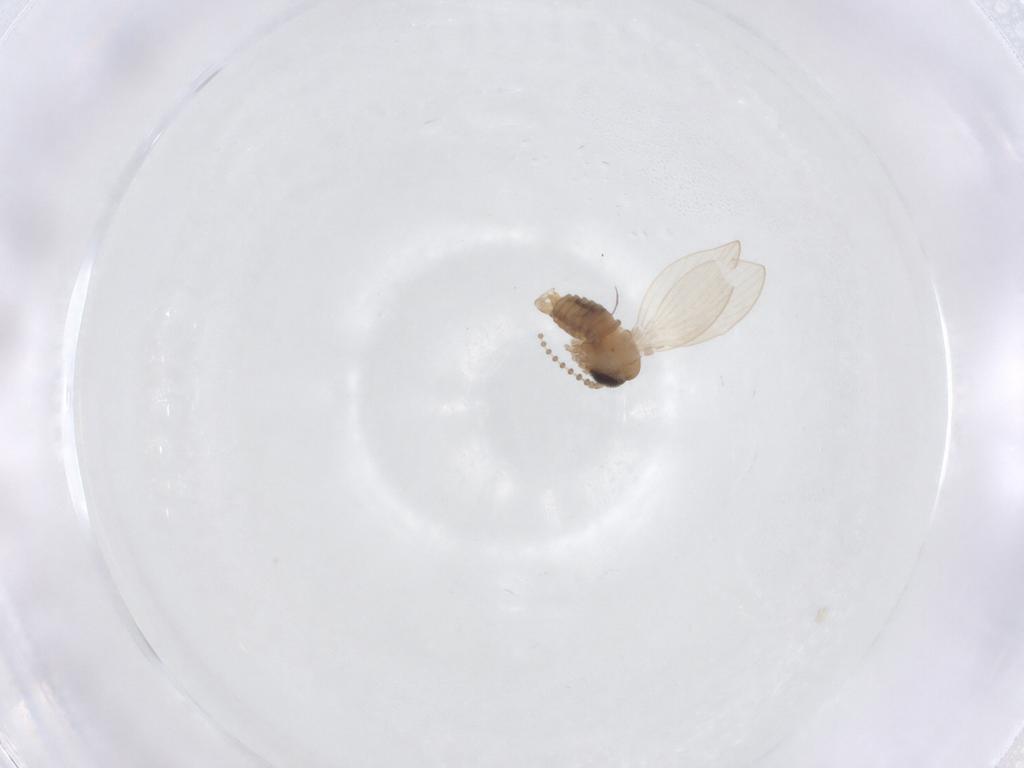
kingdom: Animalia
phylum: Arthropoda
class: Insecta
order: Diptera
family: Psychodidae
